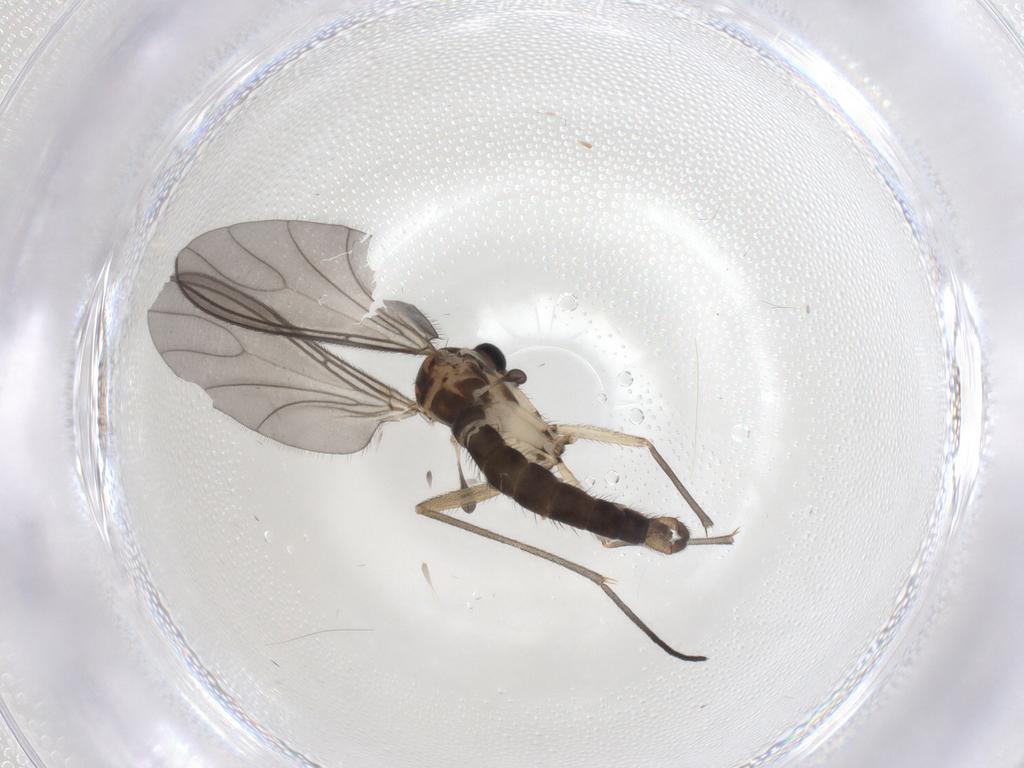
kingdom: Animalia
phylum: Arthropoda
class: Insecta
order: Diptera
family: Sciaridae
